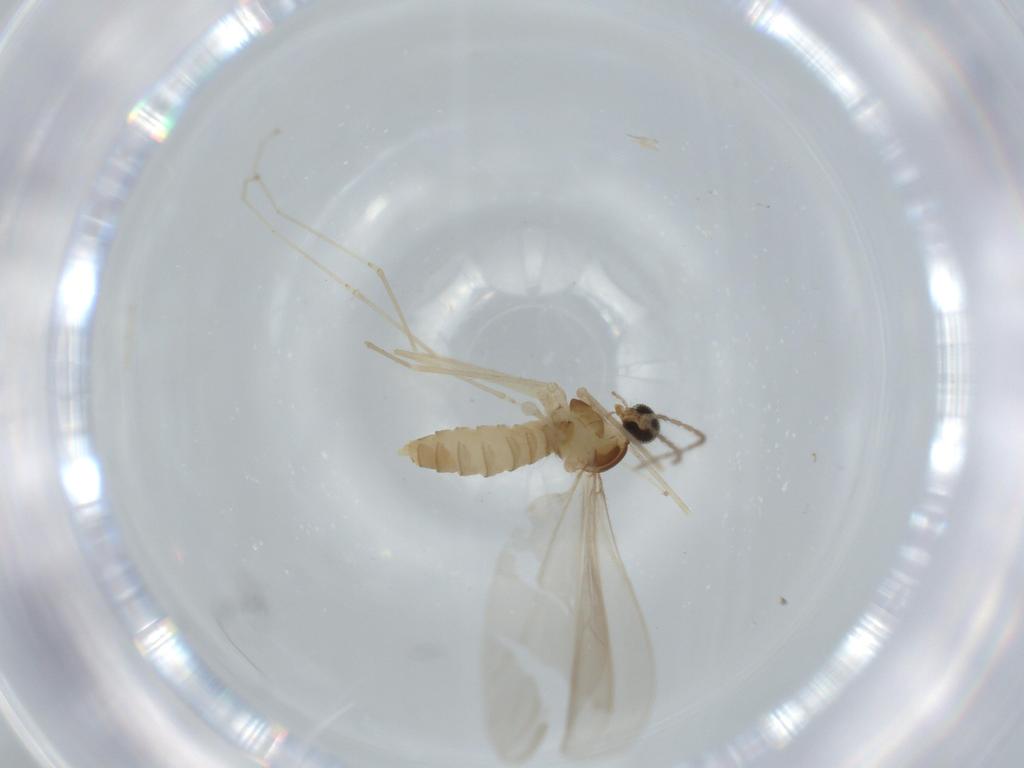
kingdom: Animalia
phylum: Arthropoda
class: Insecta
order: Diptera
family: Cecidomyiidae
